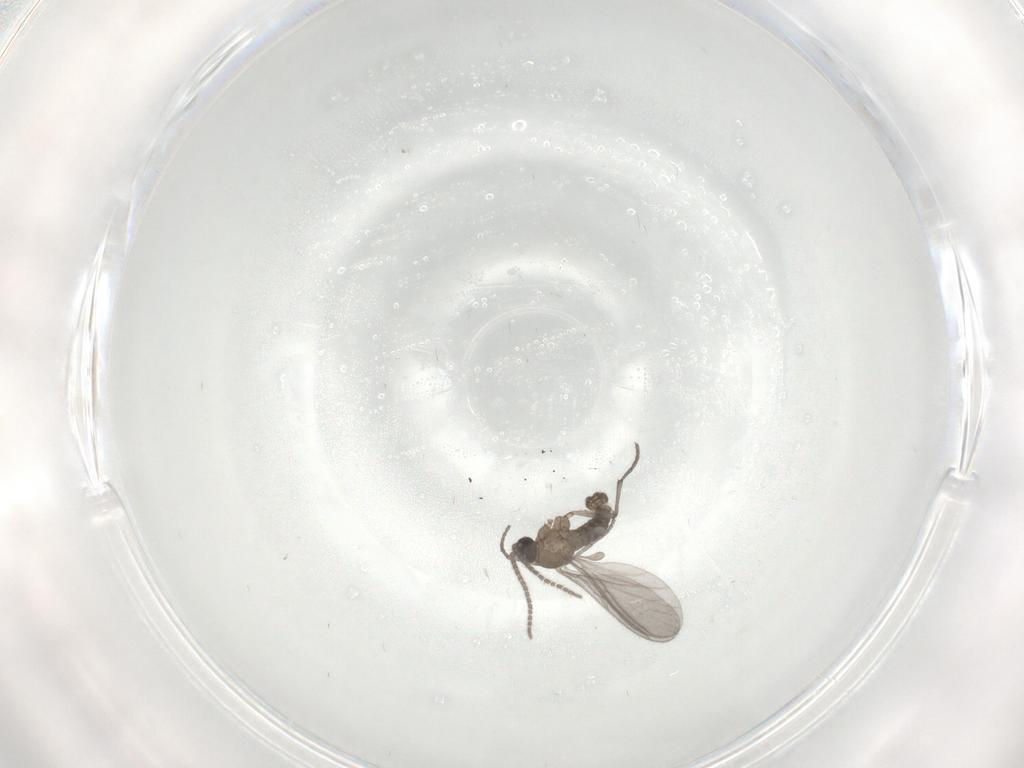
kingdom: Animalia
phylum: Arthropoda
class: Insecta
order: Diptera
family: Sciaridae
